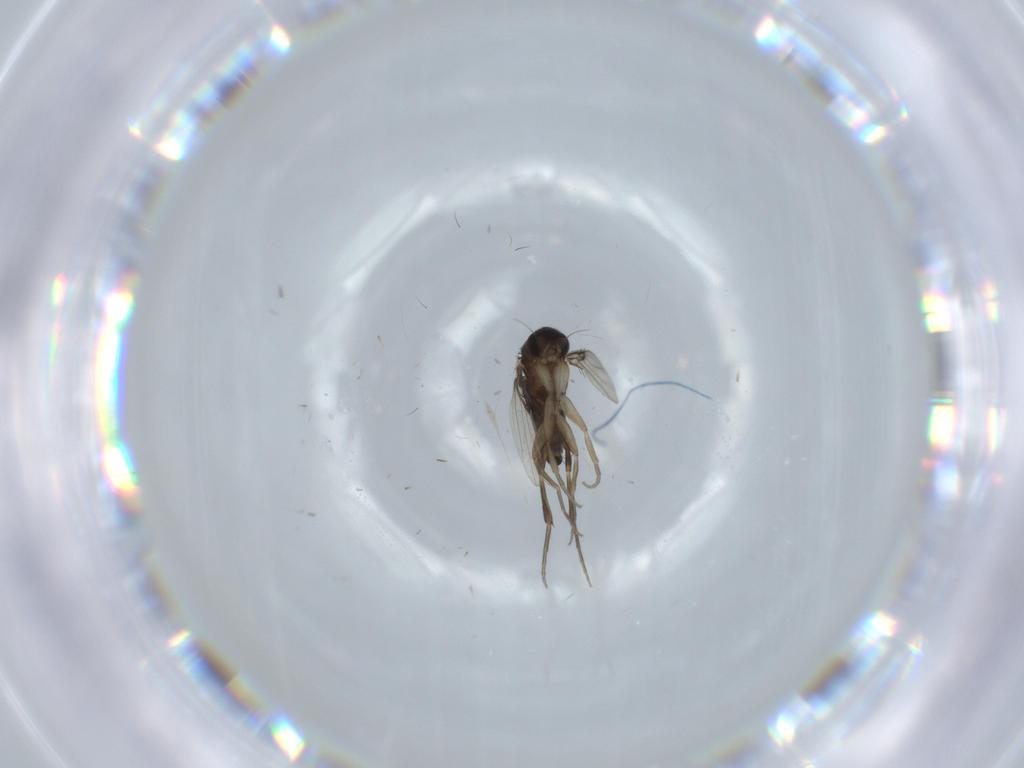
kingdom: Animalia
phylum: Arthropoda
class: Insecta
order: Diptera
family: Phoridae
